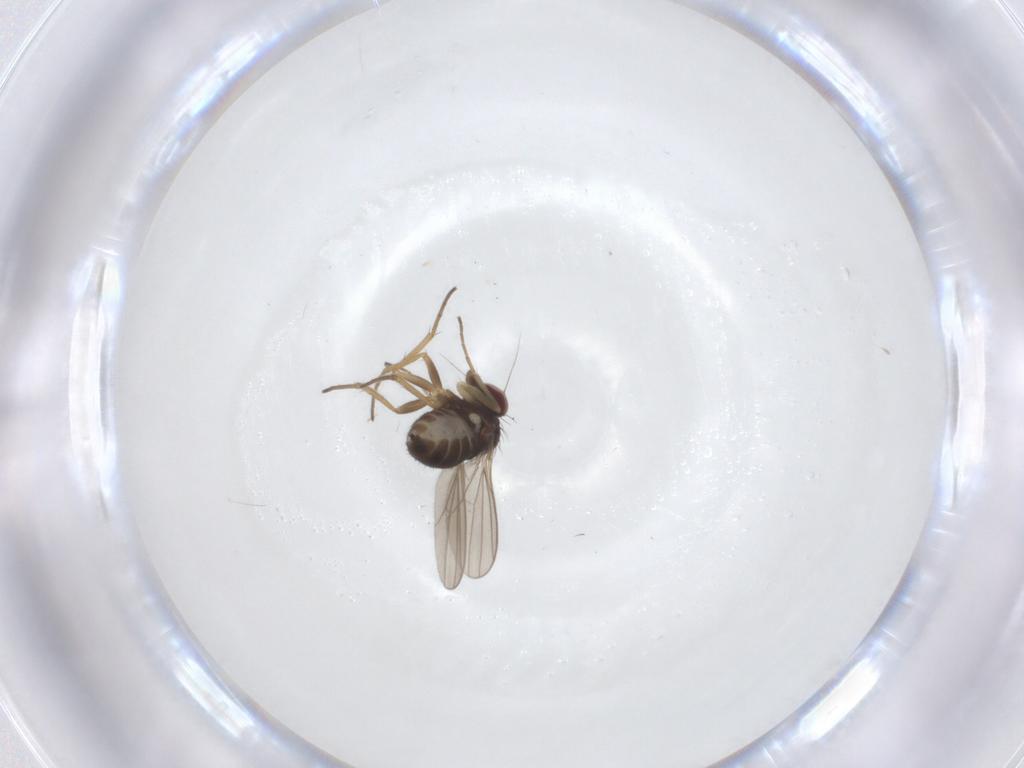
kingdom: Animalia
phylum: Arthropoda
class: Insecta
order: Diptera
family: Dolichopodidae
